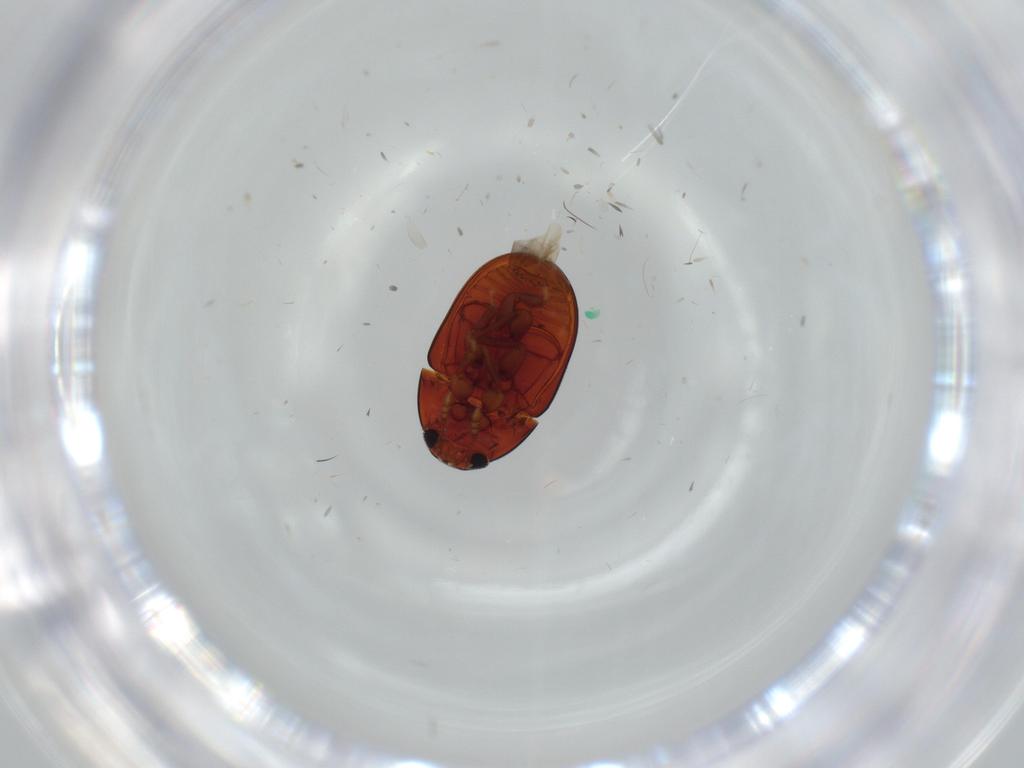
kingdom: Animalia
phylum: Arthropoda
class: Insecta
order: Coleoptera
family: Phalacridae
